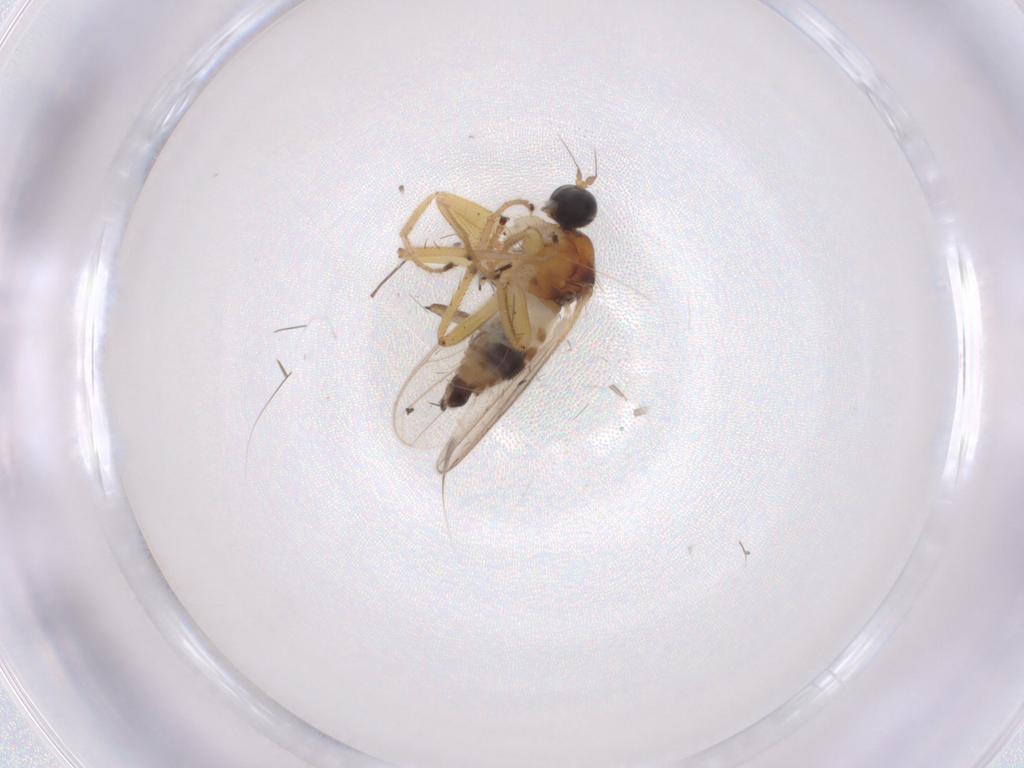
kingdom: Animalia
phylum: Arthropoda
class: Insecta
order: Diptera
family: Hybotidae
